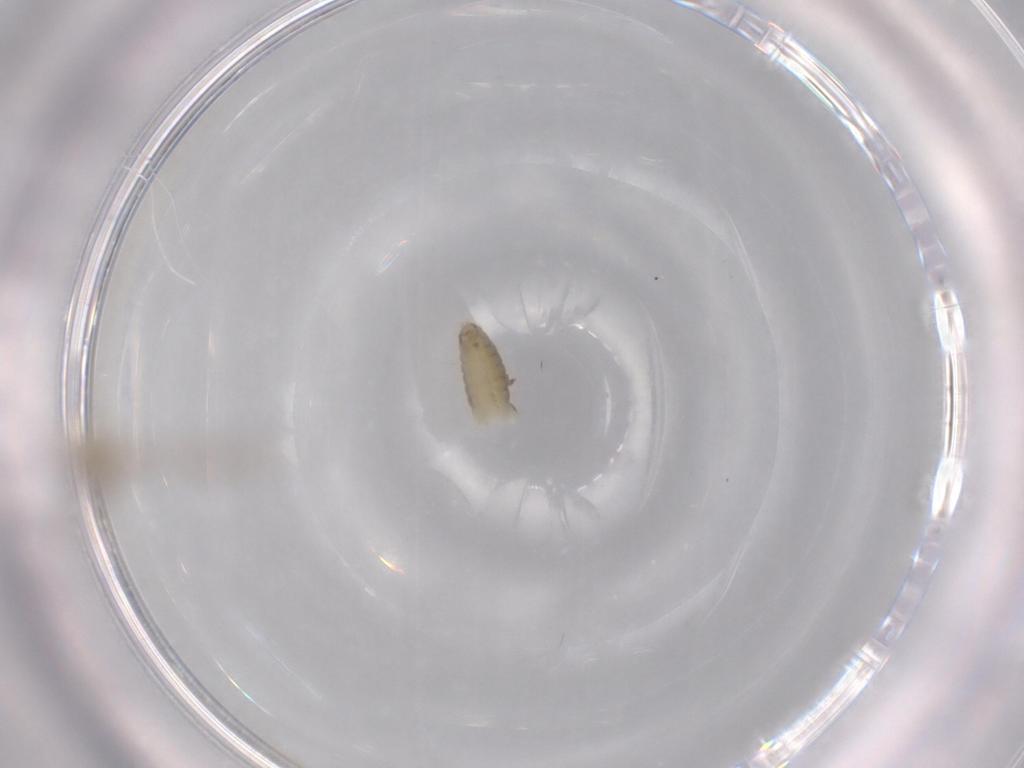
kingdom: Animalia
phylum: Arthropoda
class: Insecta
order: Diptera
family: Chironomidae
